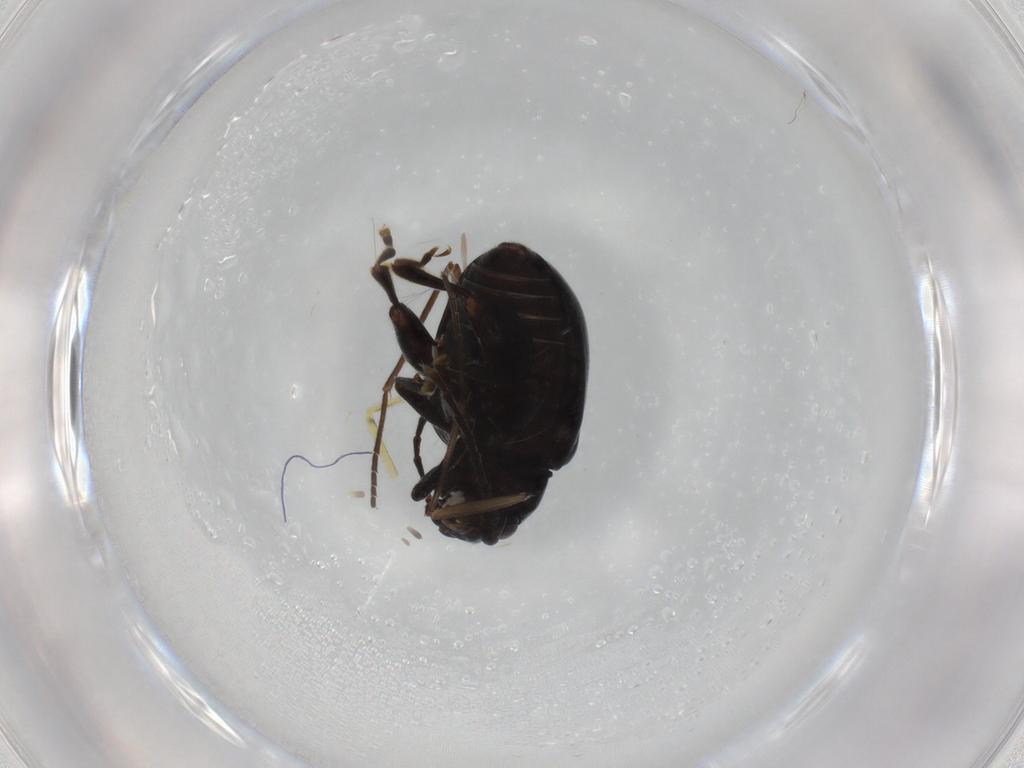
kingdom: Animalia
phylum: Arthropoda
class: Insecta
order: Coleoptera
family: Chrysomelidae
